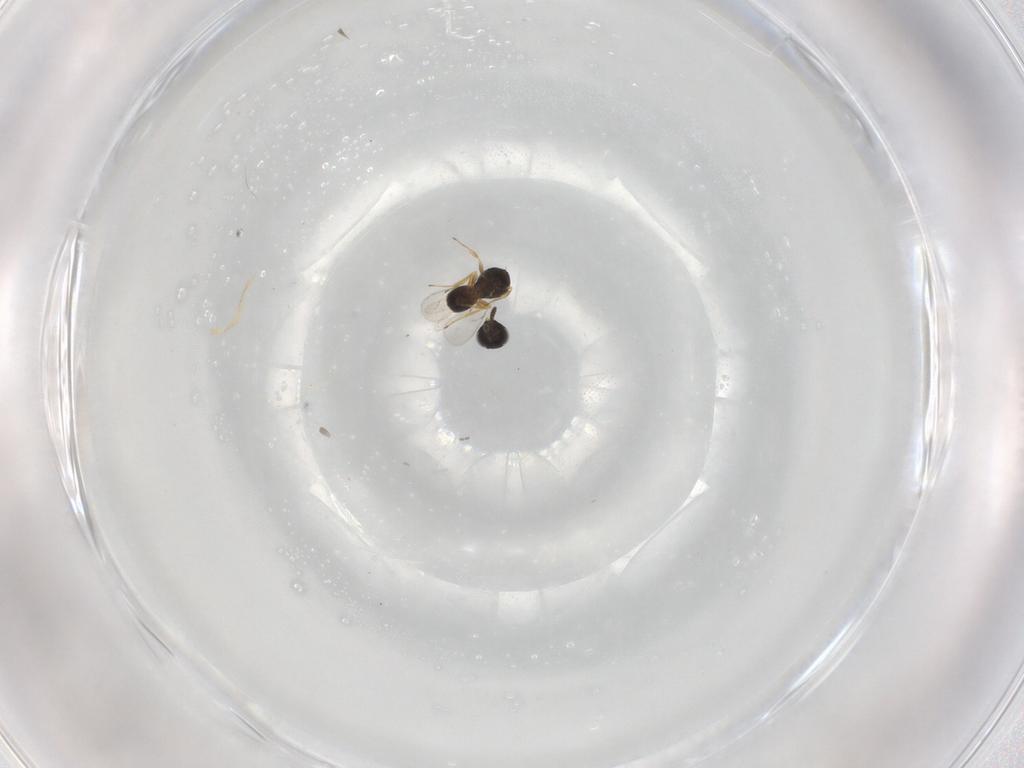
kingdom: Animalia
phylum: Arthropoda
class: Insecta
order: Hymenoptera
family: Scelionidae
